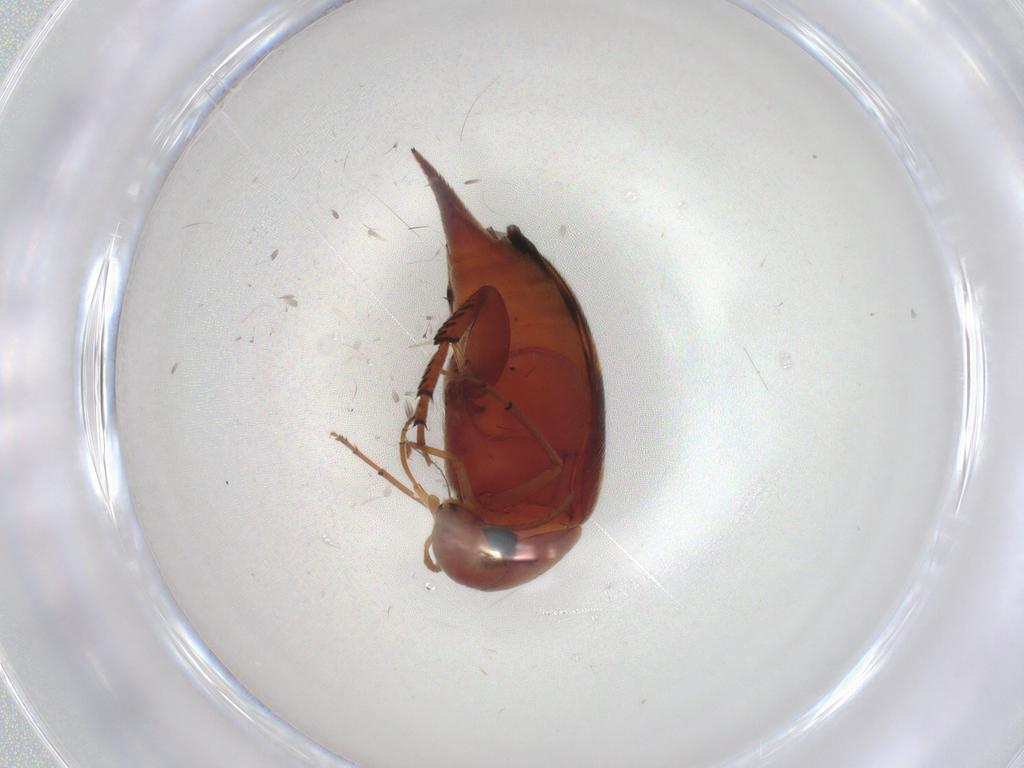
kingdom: Animalia
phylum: Arthropoda
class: Insecta
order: Coleoptera
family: Mordellidae
